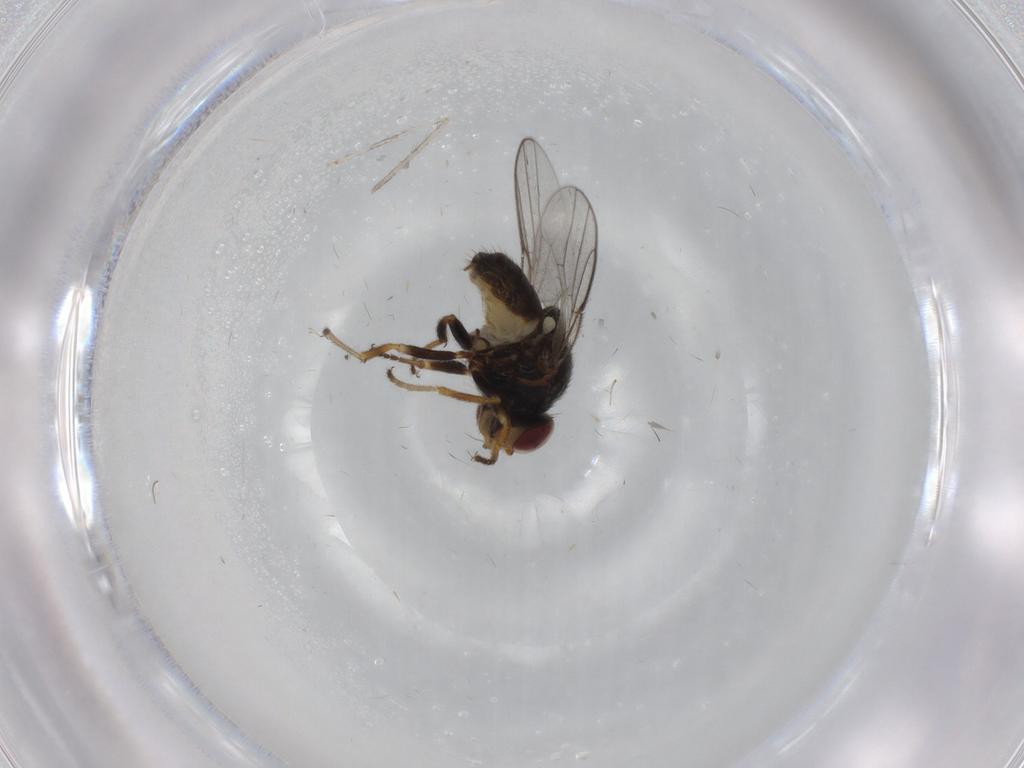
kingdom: Animalia
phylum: Arthropoda
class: Insecta
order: Diptera
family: Chloropidae
